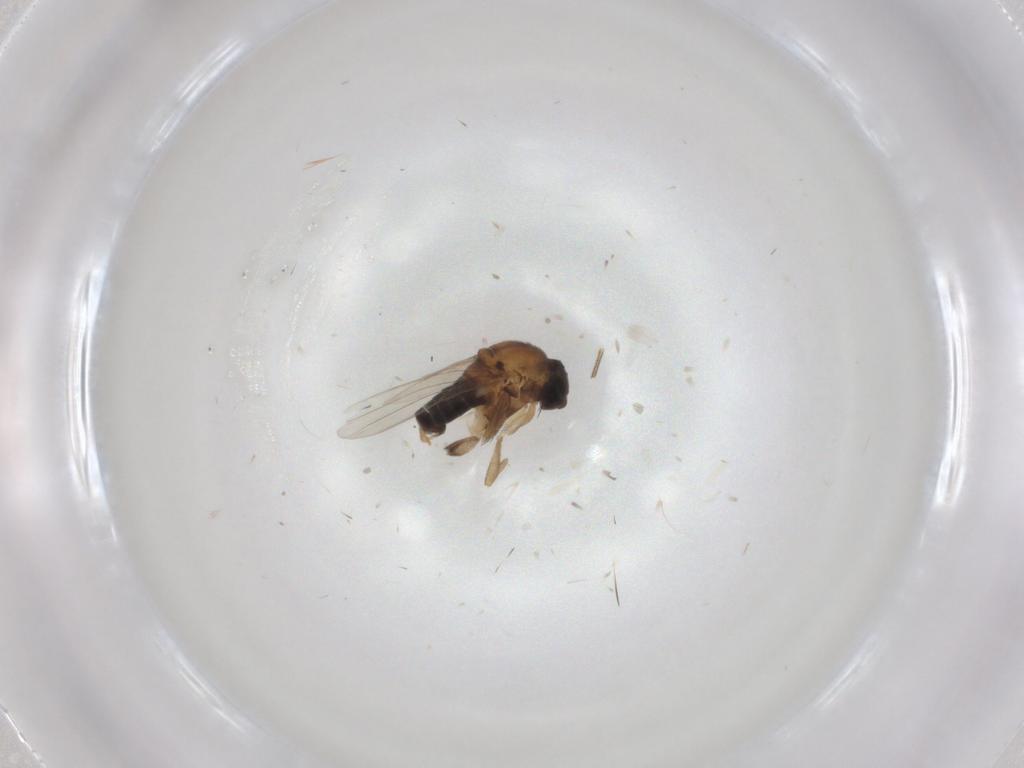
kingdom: Animalia
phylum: Arthropoda
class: Insecta
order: Diptera
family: Phoridae
